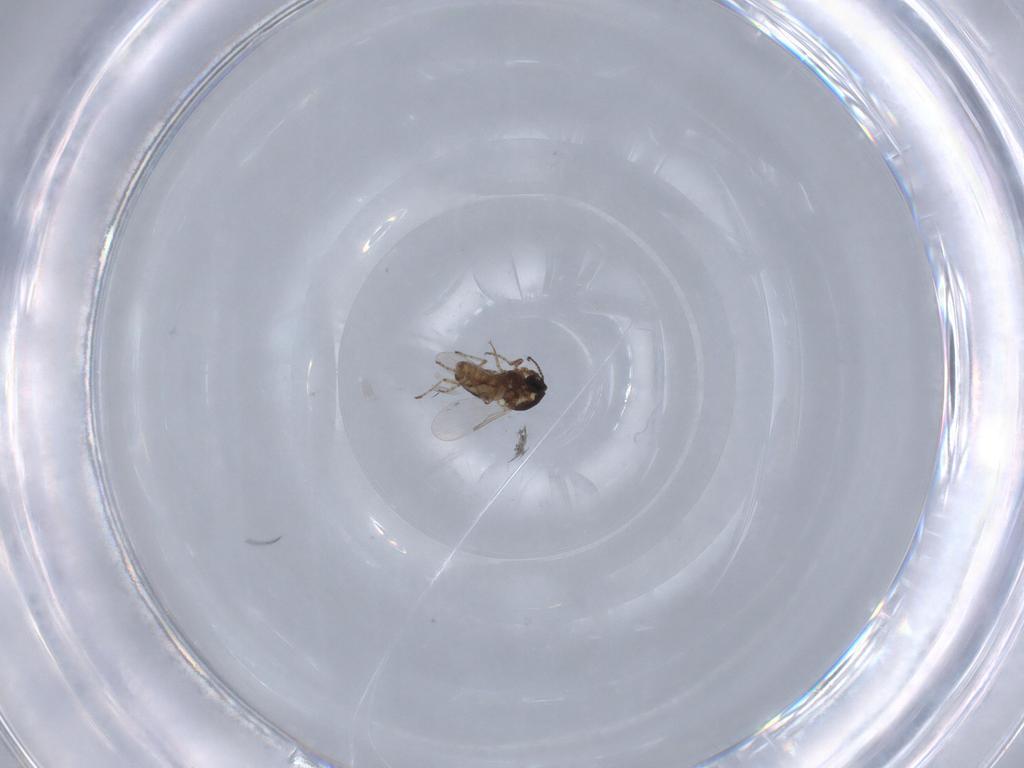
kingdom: Animalia
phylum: Arthropoda
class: Insecta
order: Diptera
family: Ceratopogonidae
